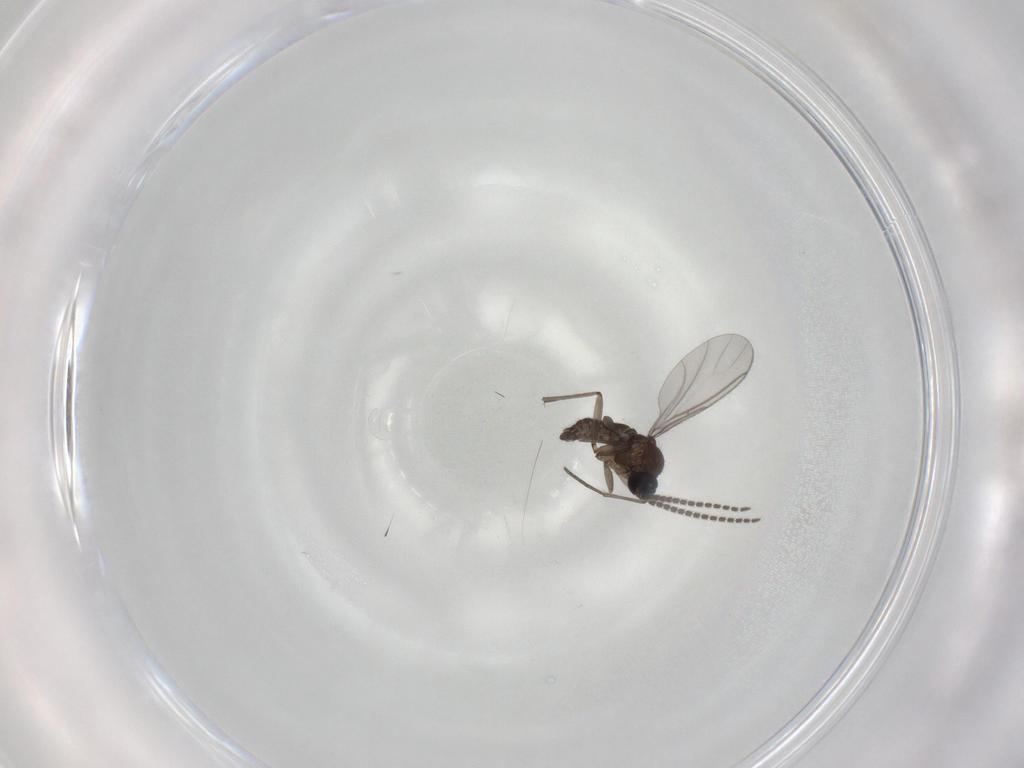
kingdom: Animalia
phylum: Arthropoda
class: Insecta
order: Diptera
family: Sciaridae
